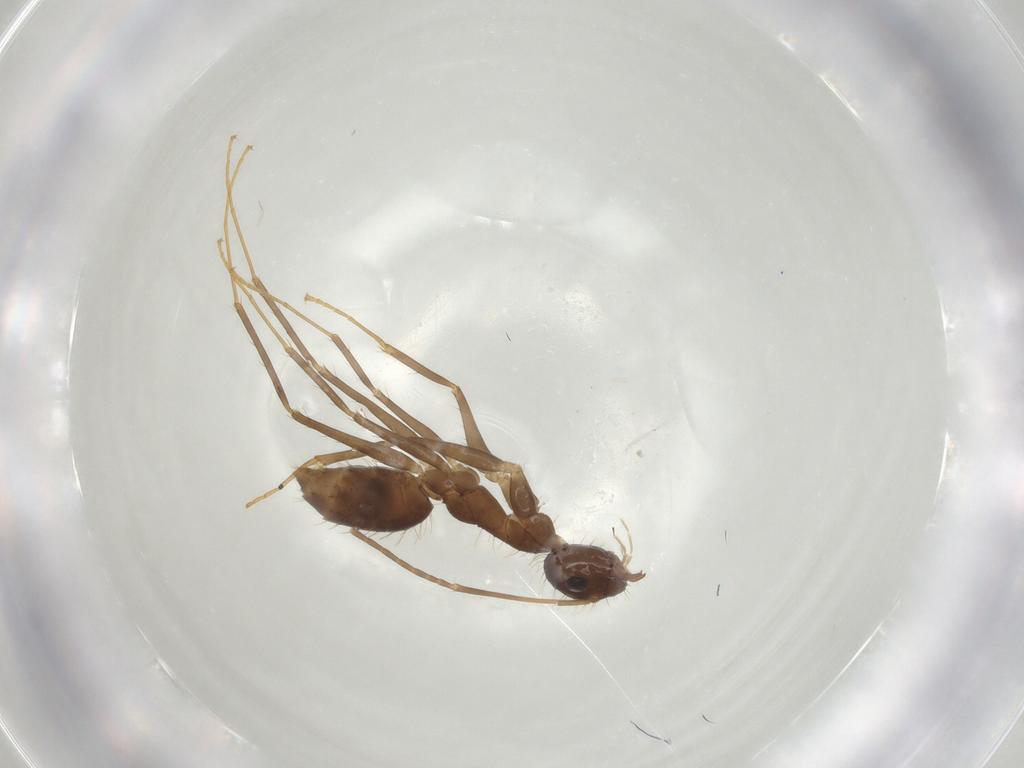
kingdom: Animalia
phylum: Arthropoda
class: Insecta
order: Hymenoptera
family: Formicidae
